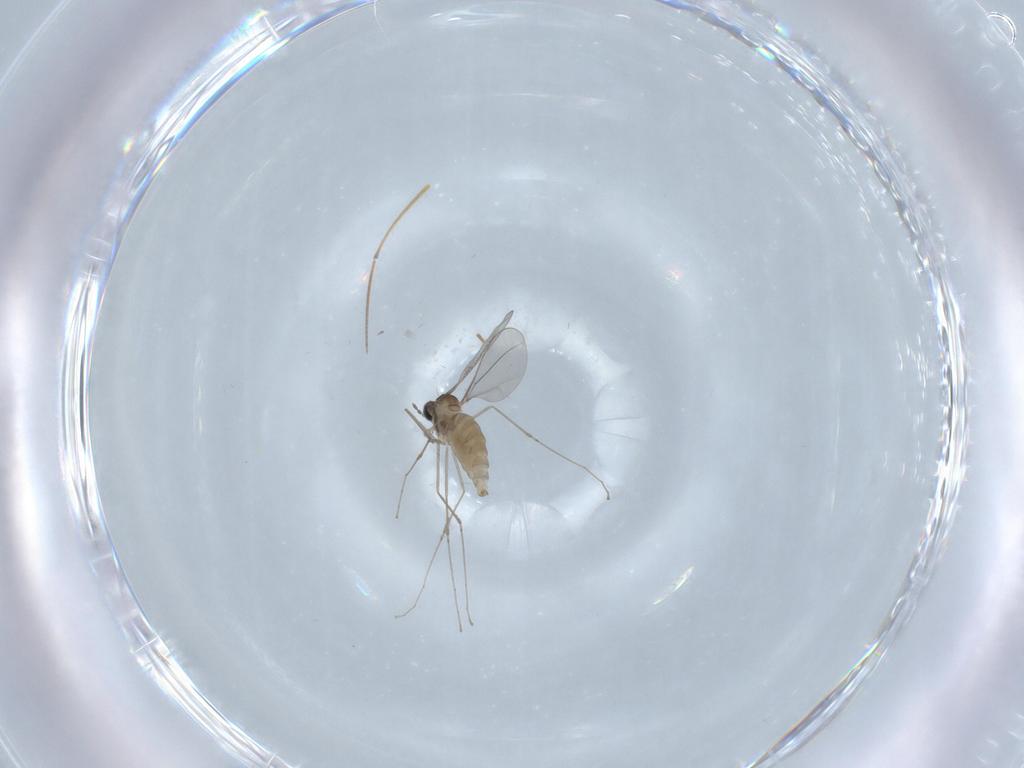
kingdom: Animalia
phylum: Arthropoda
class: Insecta
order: Diptera
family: Cecidomyiidae
